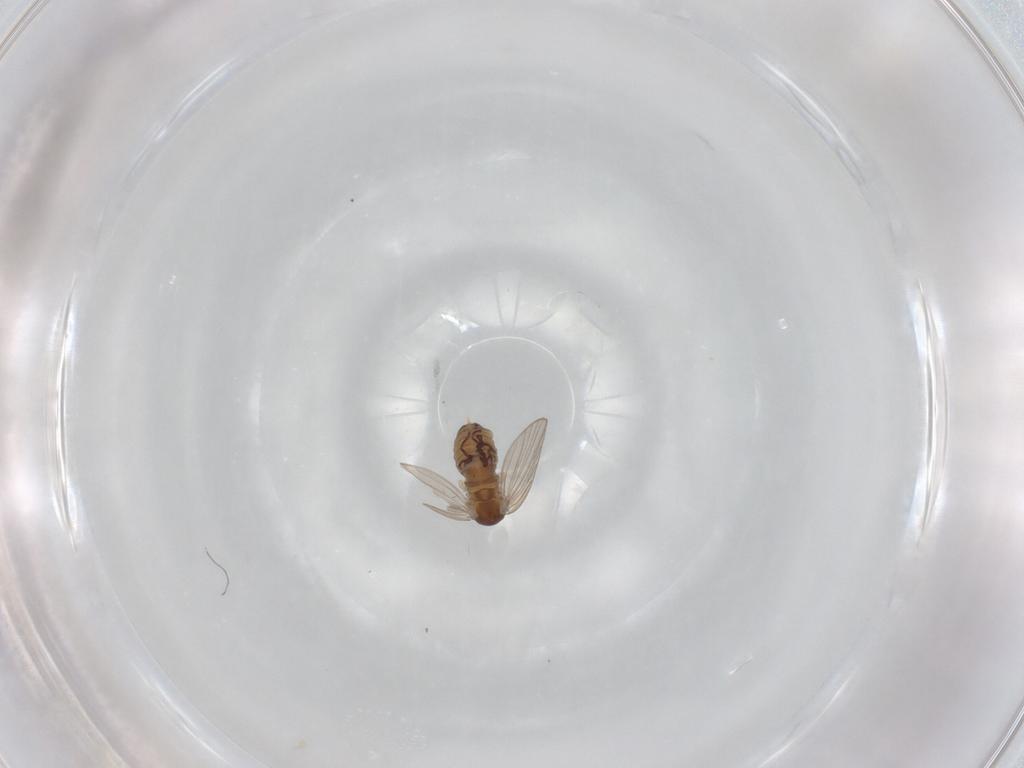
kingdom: Animalia
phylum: Arthropoda
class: Insecta
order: Diptera
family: Psychodidae
